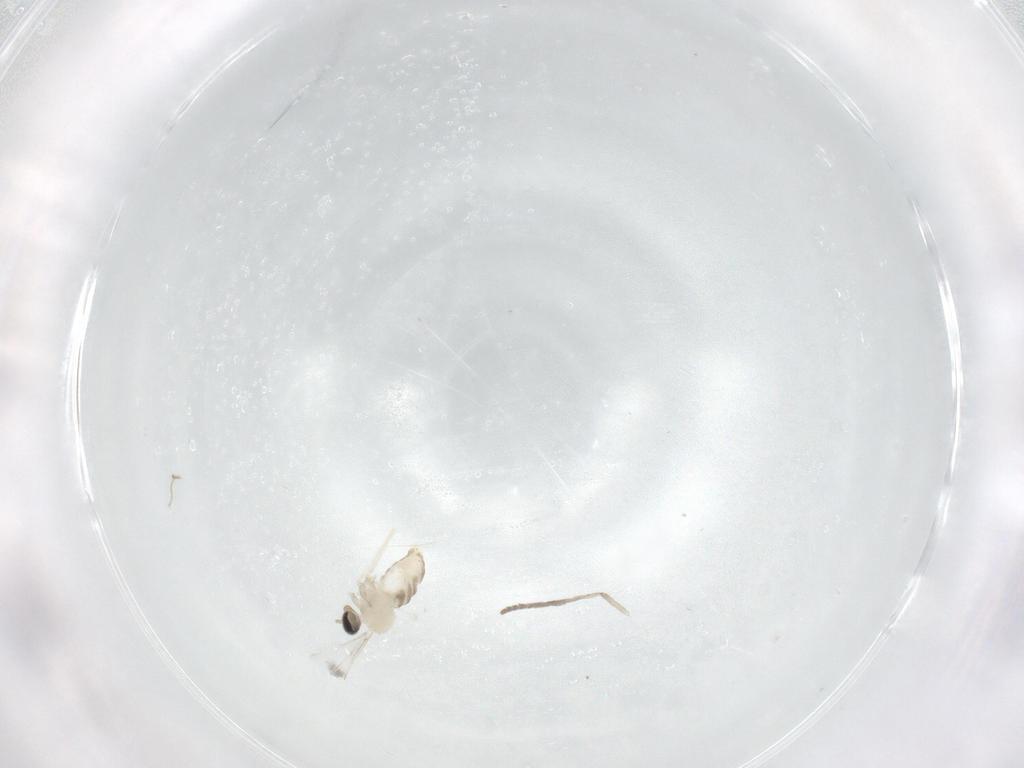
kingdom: Animalia
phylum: Arthropoda
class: Insecta
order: Diptera
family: Cecidomyiidae
